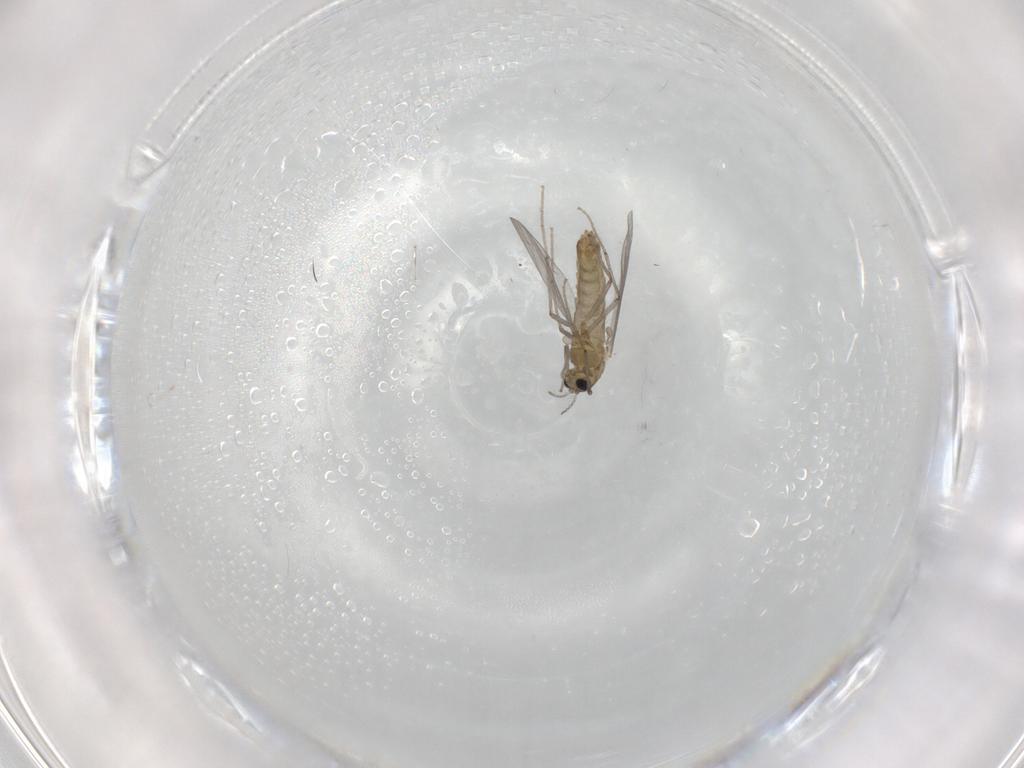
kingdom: Animalia
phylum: Arthropoda
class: Insecta
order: Diptera
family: Chironomidae
